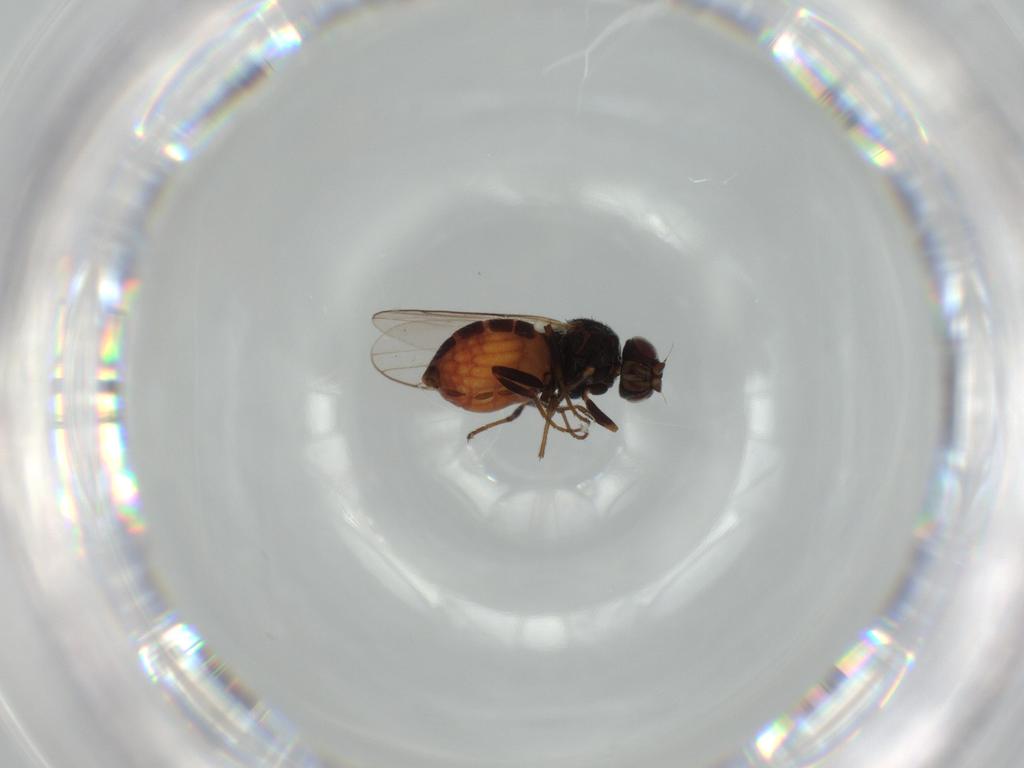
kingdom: Animalia
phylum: Arthropoda
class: Insecta
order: Diptera
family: Chloropidae
